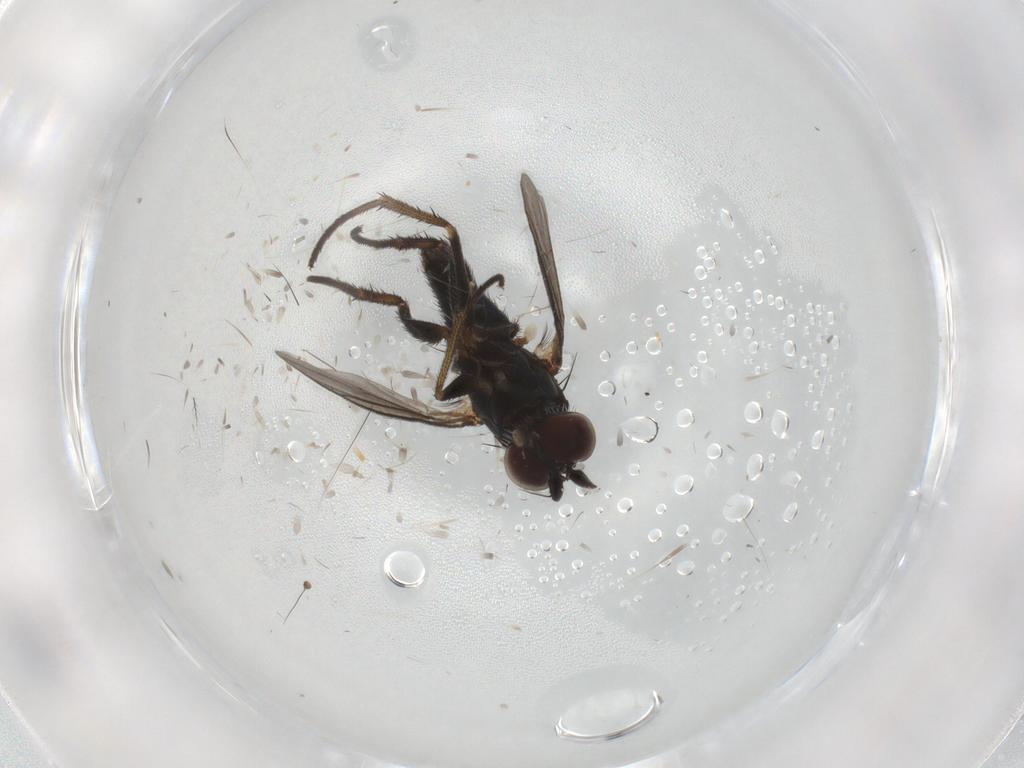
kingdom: Animalia
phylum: Arthropoda
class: Insecta
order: Diptera
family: Dolichopodidae
